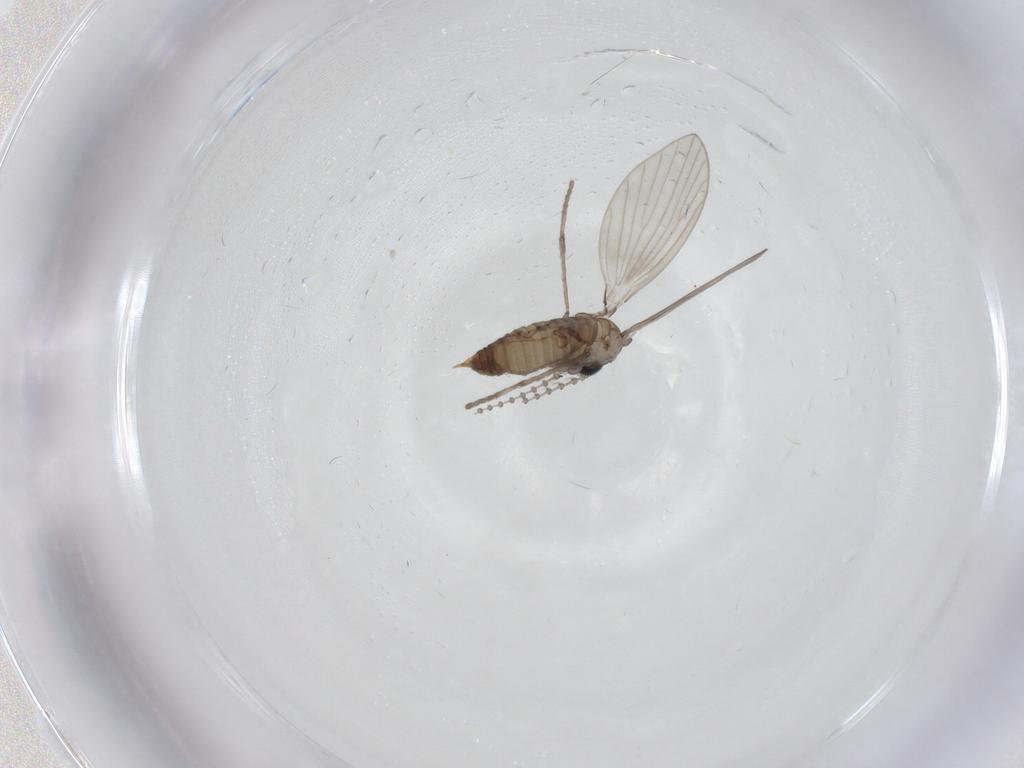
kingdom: Animalia
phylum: Arthropoda
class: Insecta
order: Diptera
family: Psychodidae
